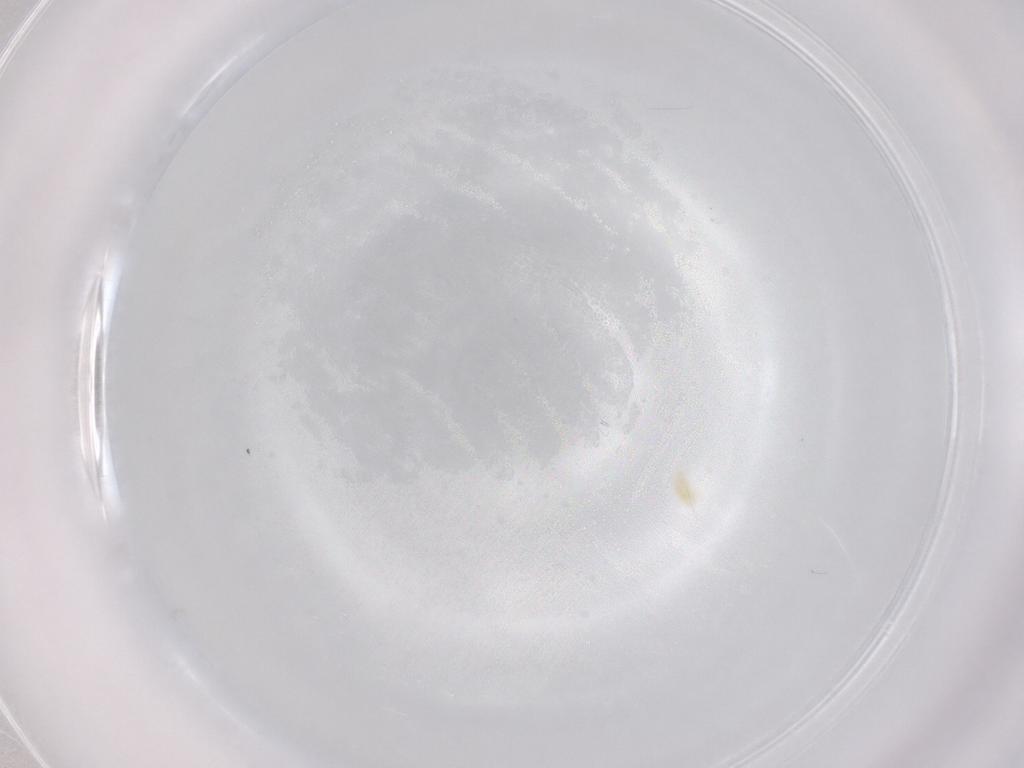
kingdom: Animalia
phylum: Arthropoda
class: Arachnida
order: Trombidiformes
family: Eupodidae
